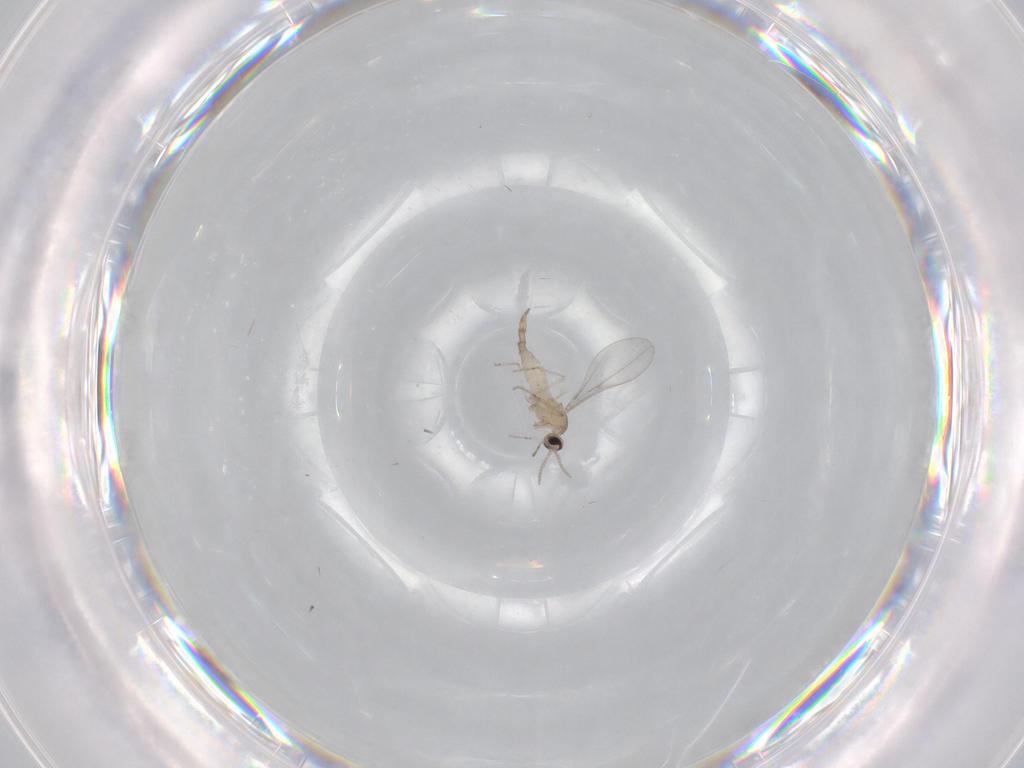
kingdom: Animalia
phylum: Arthropoda
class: Insecta
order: Diptera
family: Cecidomyiidae
